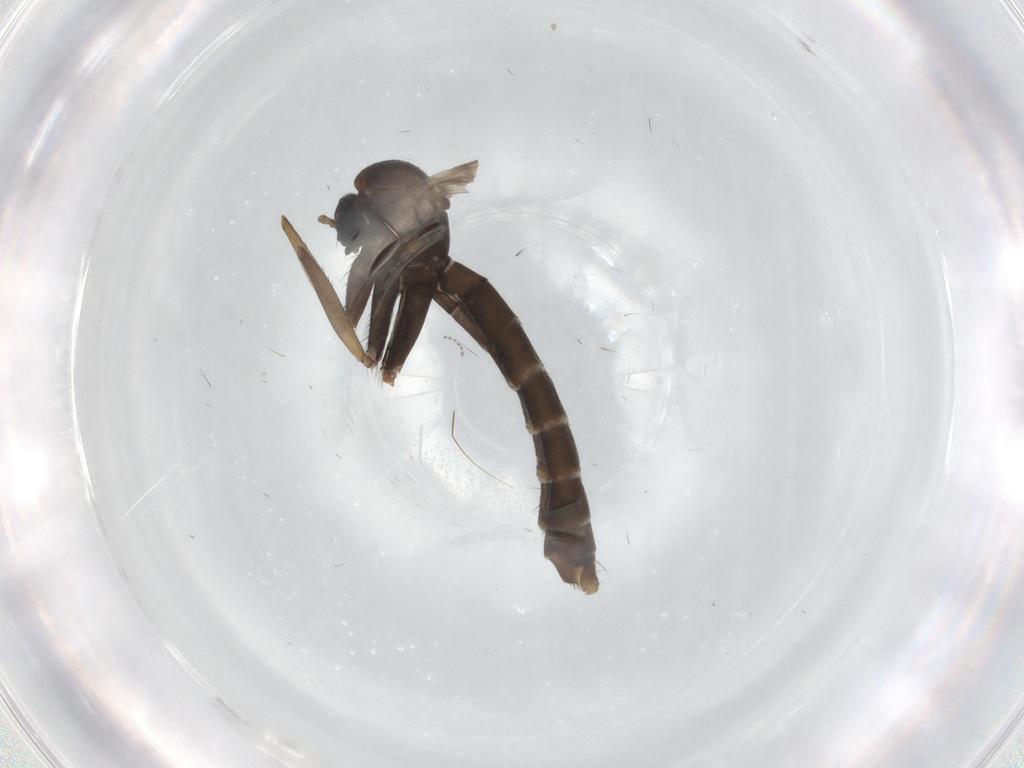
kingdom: Animalia
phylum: Arthropoda
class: Insecta
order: Diptera
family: Ditomyiidae
